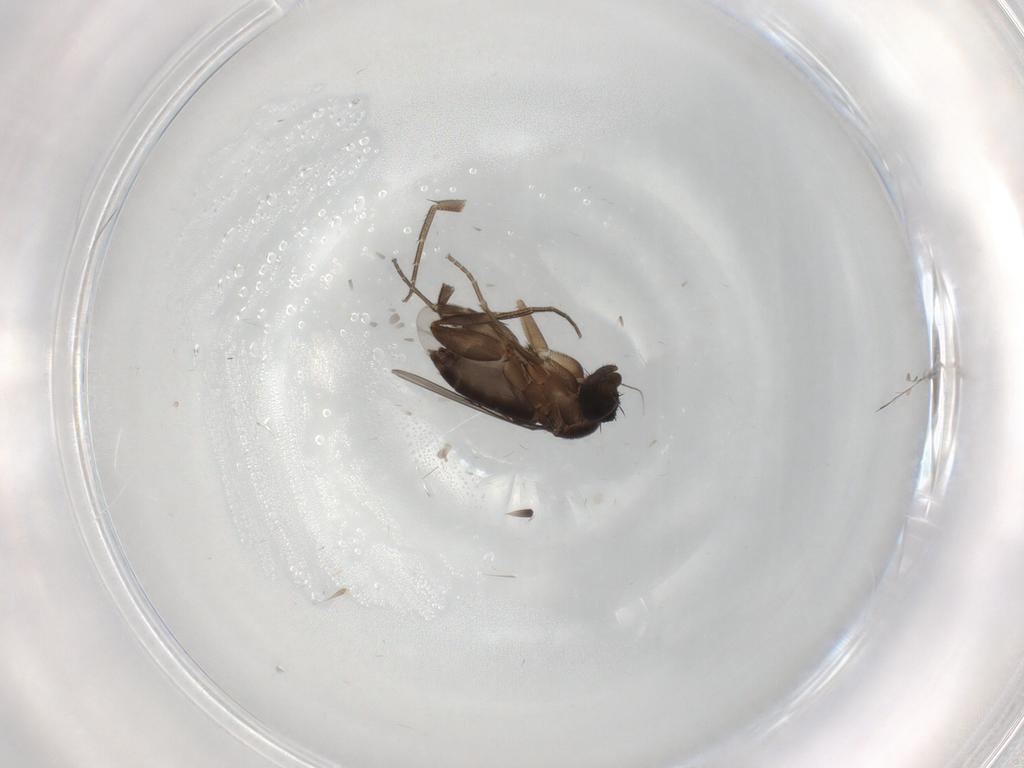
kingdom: Animalia
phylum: Arthropoda
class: Insecta
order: Diptera
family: Phoridae
